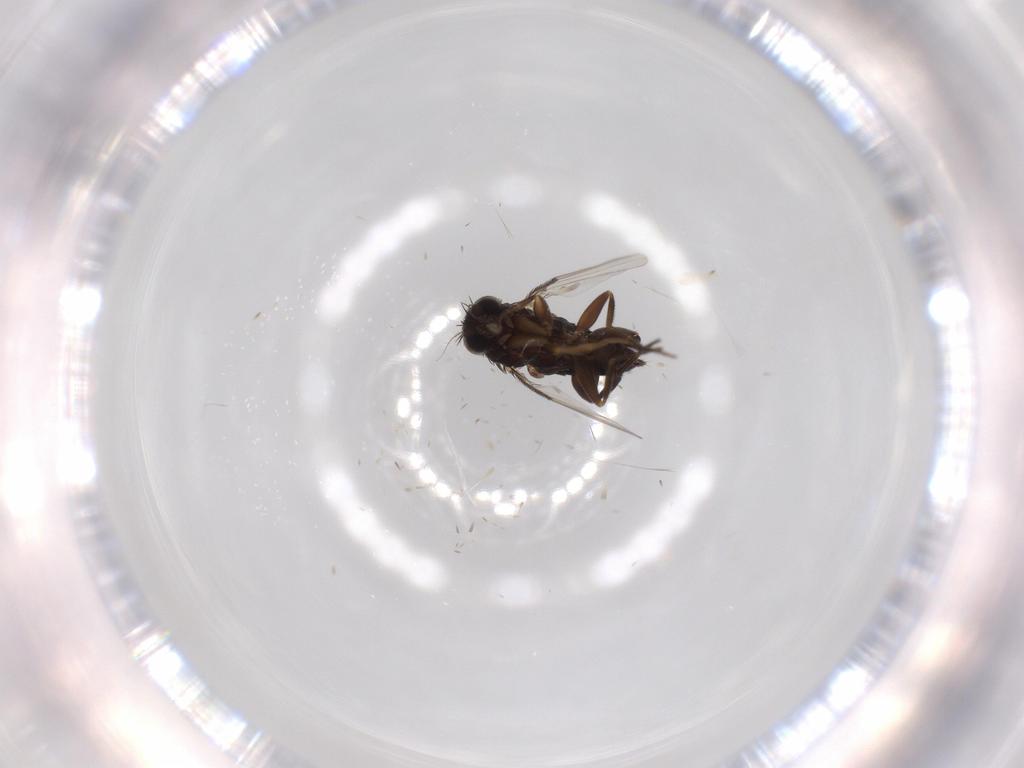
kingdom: Animalia
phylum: Arthropoda
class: Insecta
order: Diptera
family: Phoridae
